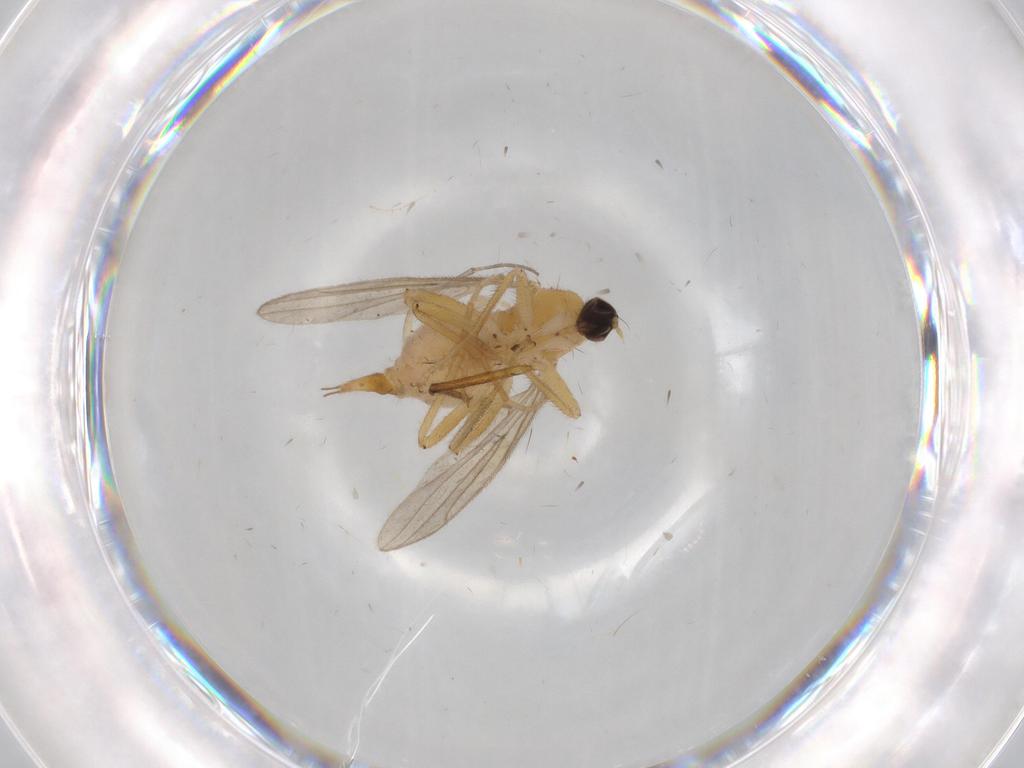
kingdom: Animalia
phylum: Arthropoda
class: Insecta
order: Diptera
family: Hybotidae
